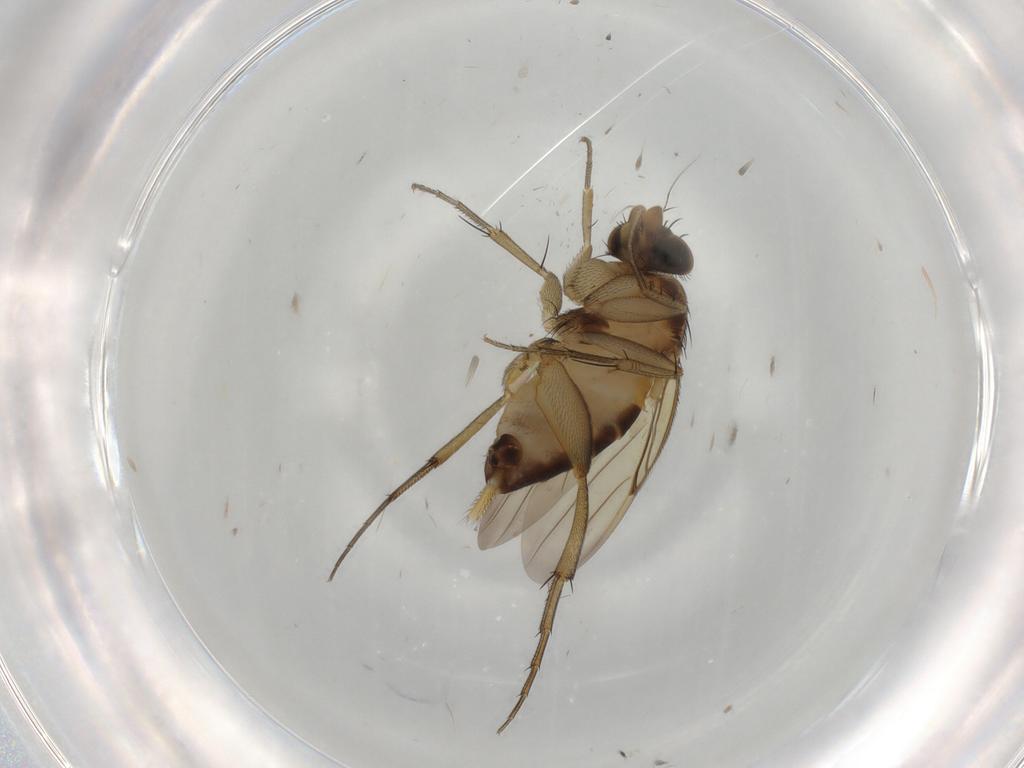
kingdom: Animalia
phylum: Arthropoda
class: Insecta
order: Diptera
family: Phoridae
